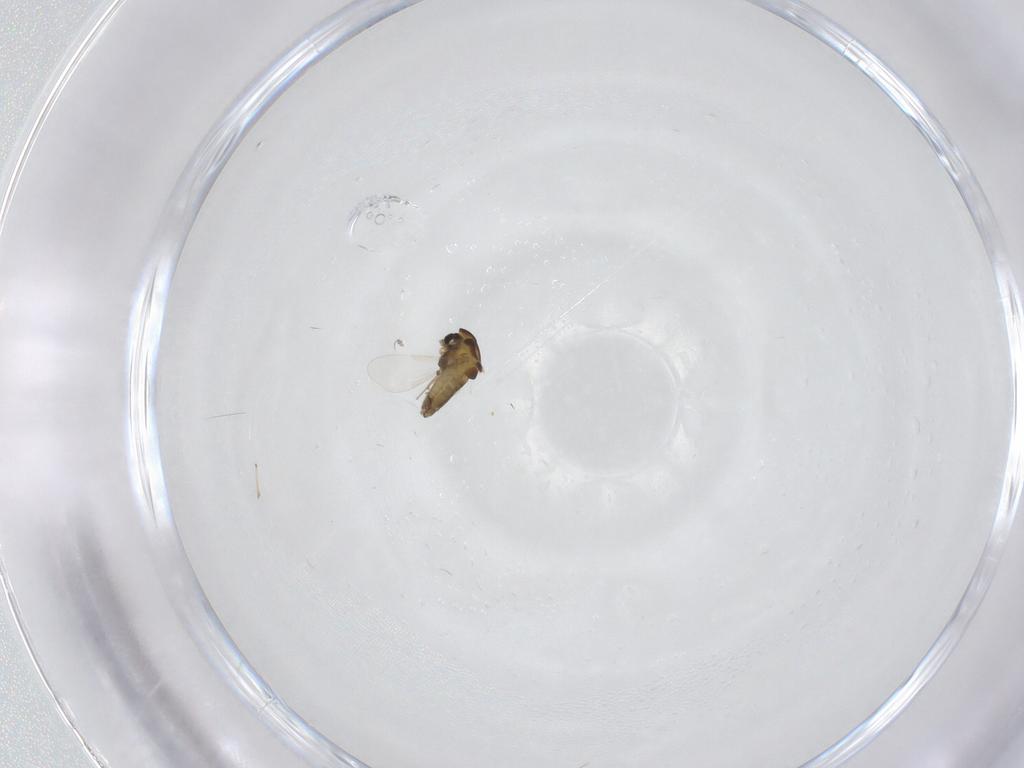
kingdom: Animalia
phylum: Arthropoda
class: Insecta
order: Diptera
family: Chironomidae
